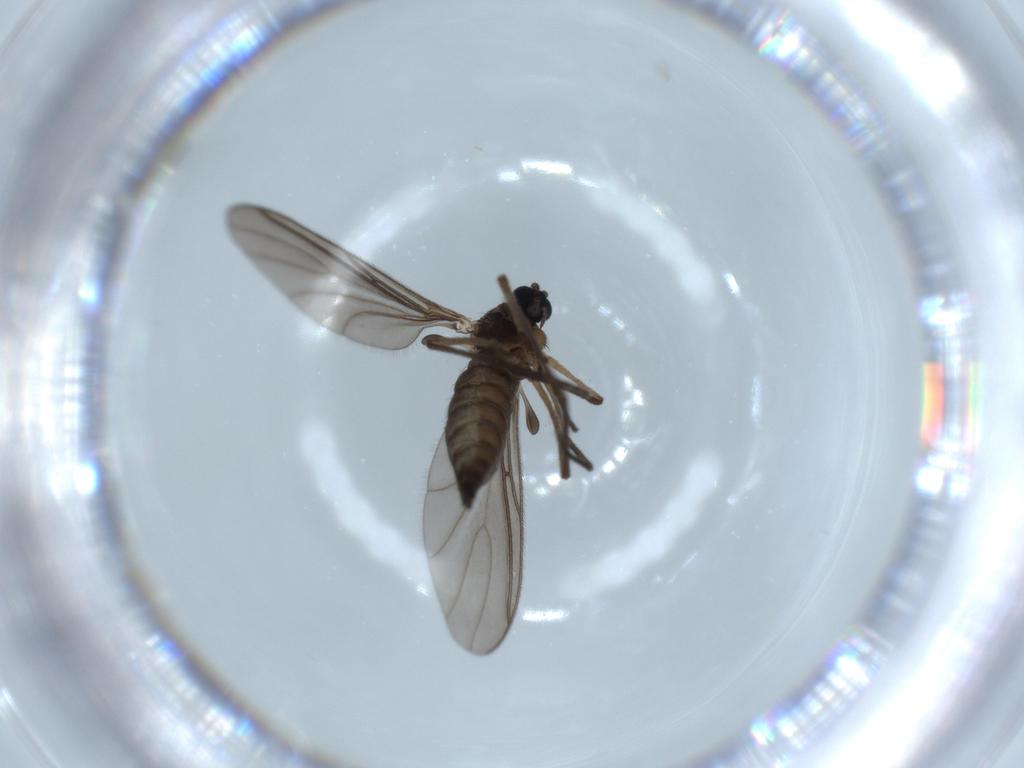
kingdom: Animalia
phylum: Arthropoda
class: Insecta
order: Diptera
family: Sciaridae
